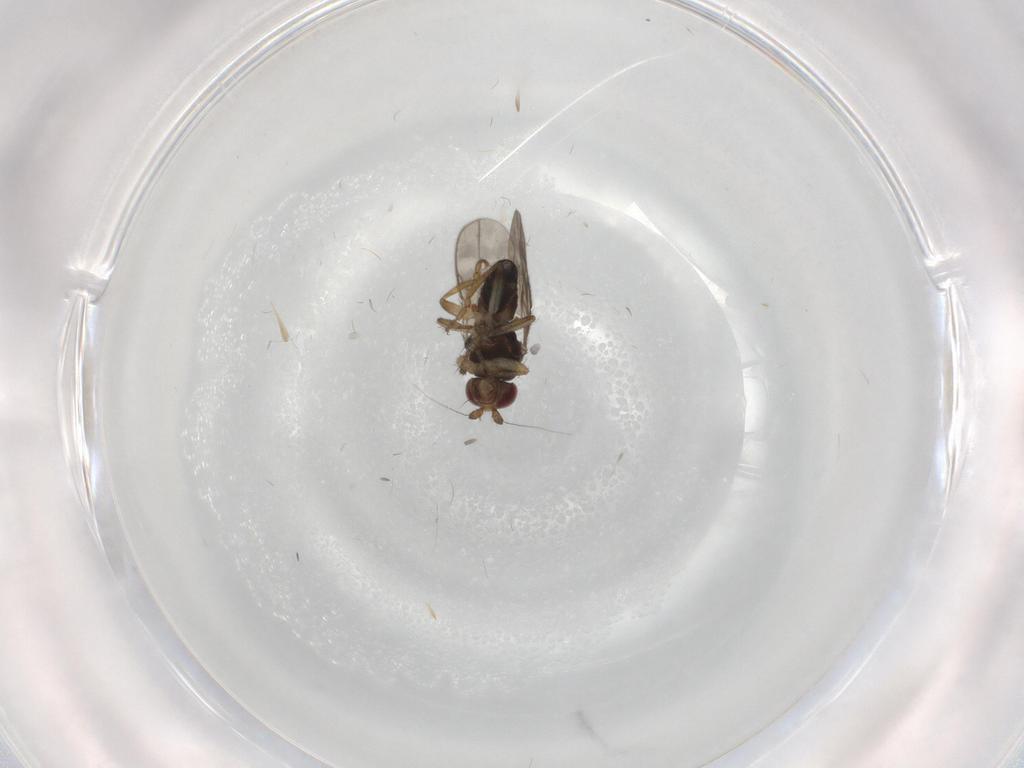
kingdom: Animalia
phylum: Arthropoda
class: Insecta
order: Diptera
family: Sphaeroceridae
